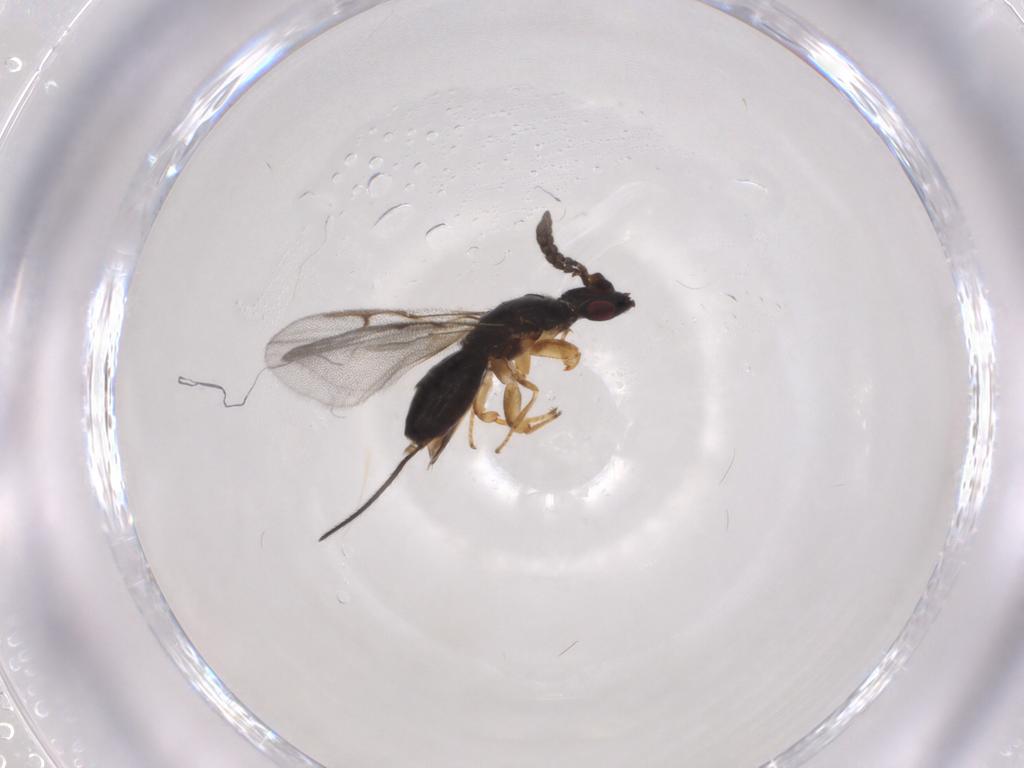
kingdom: Animalia
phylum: Arthropoda
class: Insecta
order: Hymenoptera
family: Agaonidae
